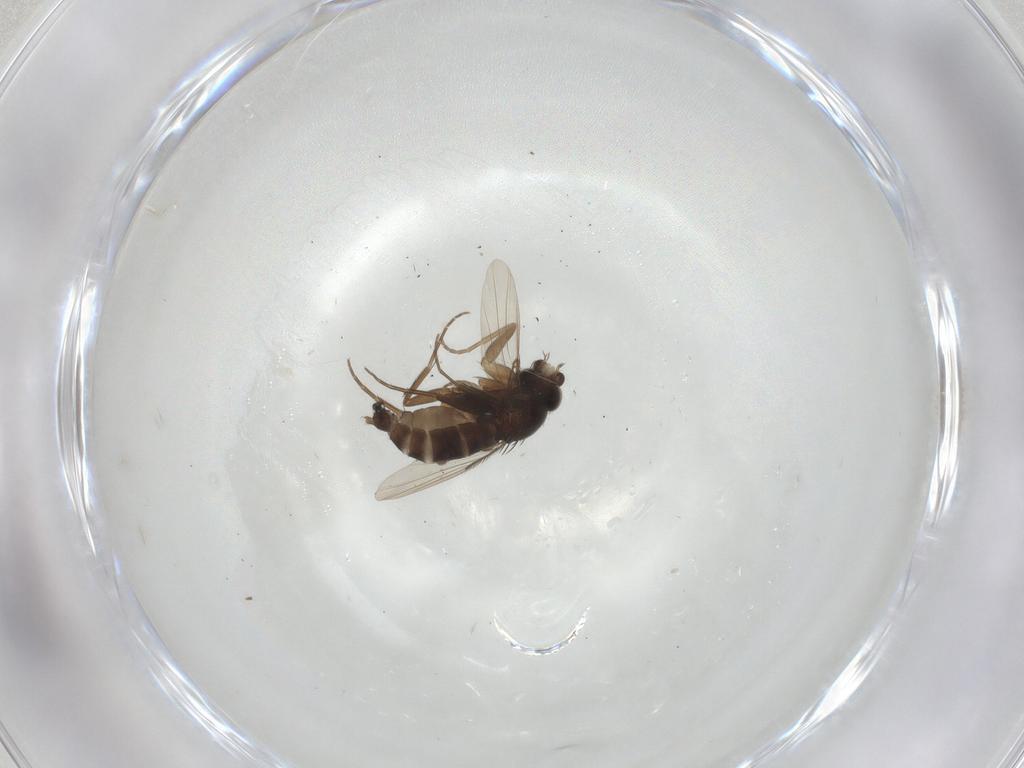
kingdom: Animalia
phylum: Arthropoda
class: Insecta
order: Diptera
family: Phoridae
